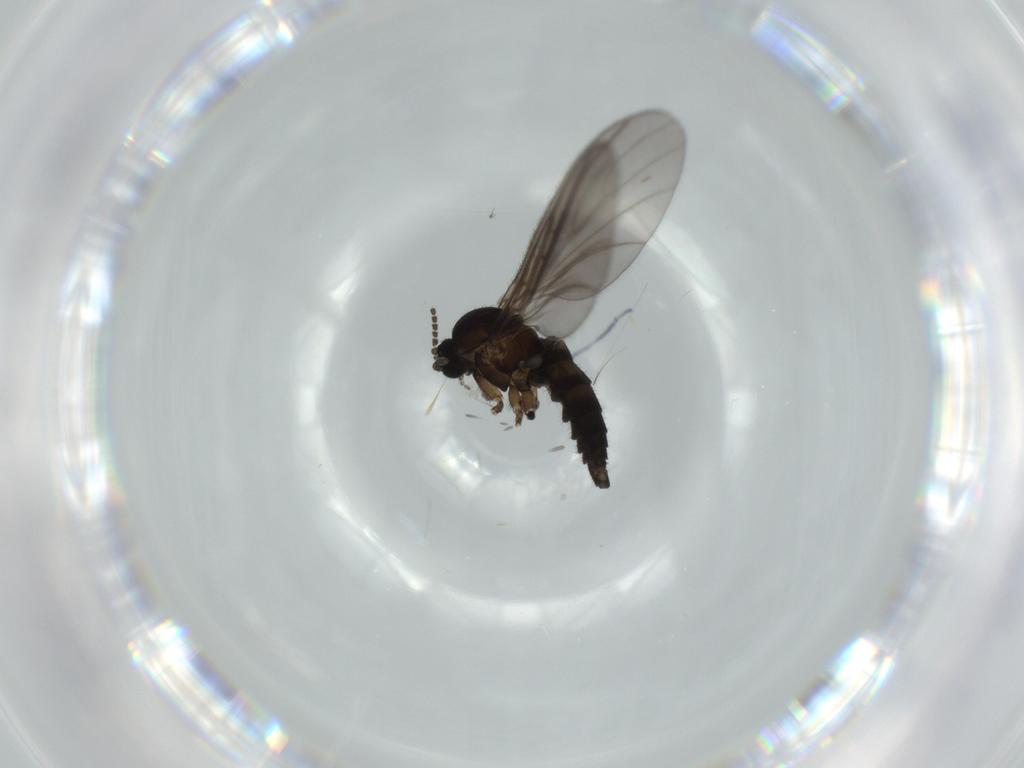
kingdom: Animalia
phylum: Arthropoda
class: Insecta
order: Diptera
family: Sciaridae
